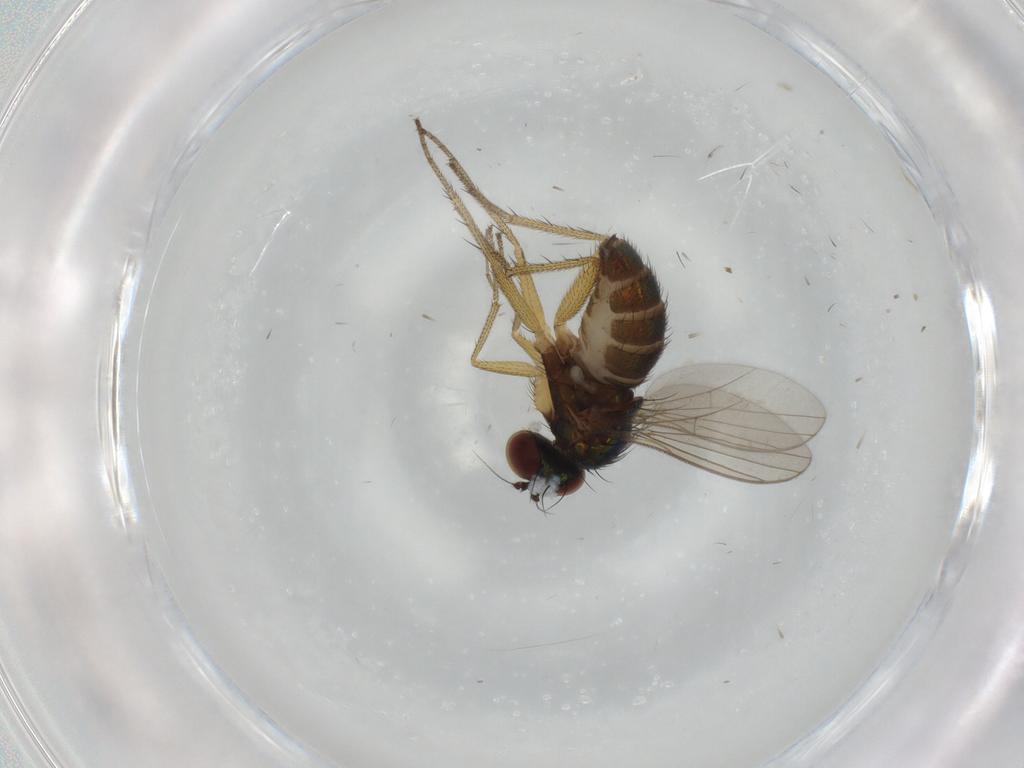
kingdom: Animalia
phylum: Arthropoda
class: Insecta
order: Diptera
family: Dolichopodidae
